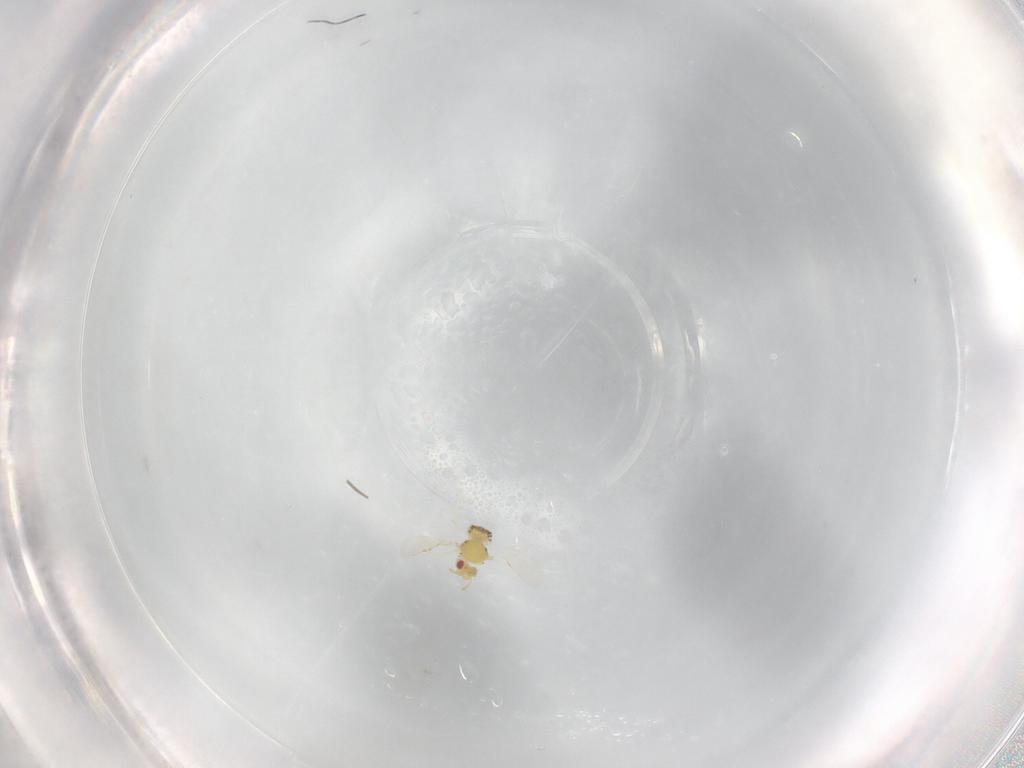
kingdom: Animalia
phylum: Arthropoda
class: Insecta
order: Hymenoptera
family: Eulophidae
